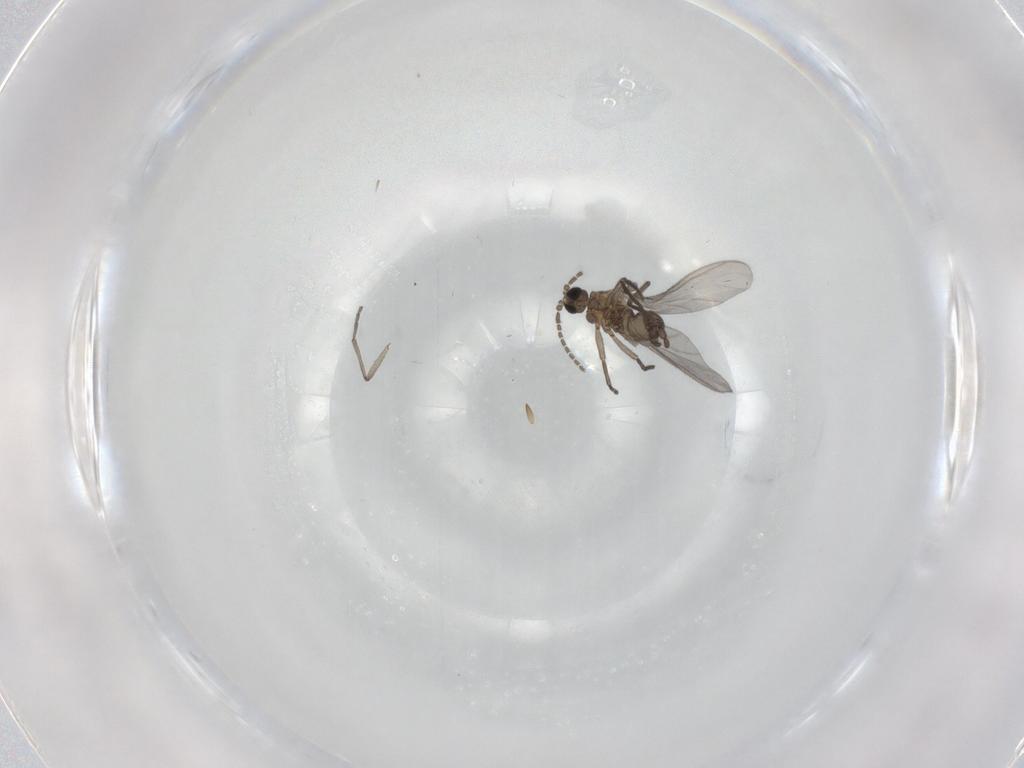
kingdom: Animalia
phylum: Arthropoda
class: Insecta
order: Diptera
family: Sciaridae
